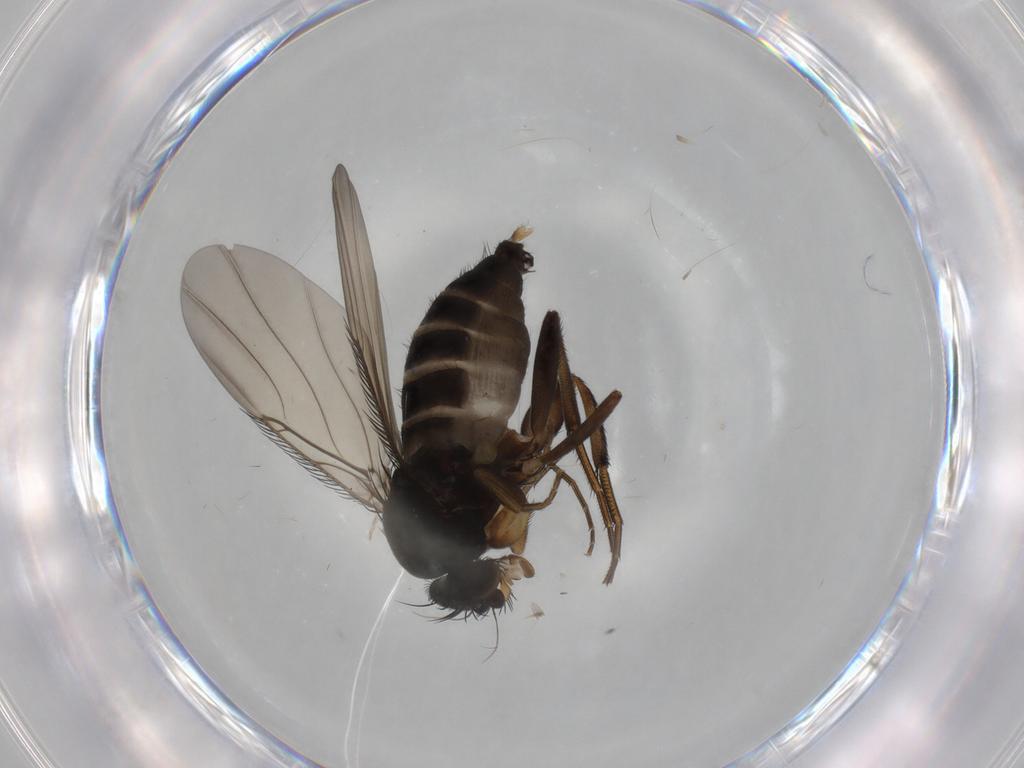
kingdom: Animalia
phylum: Arthropoda
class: Insecta
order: Diptera
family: Phoridae
